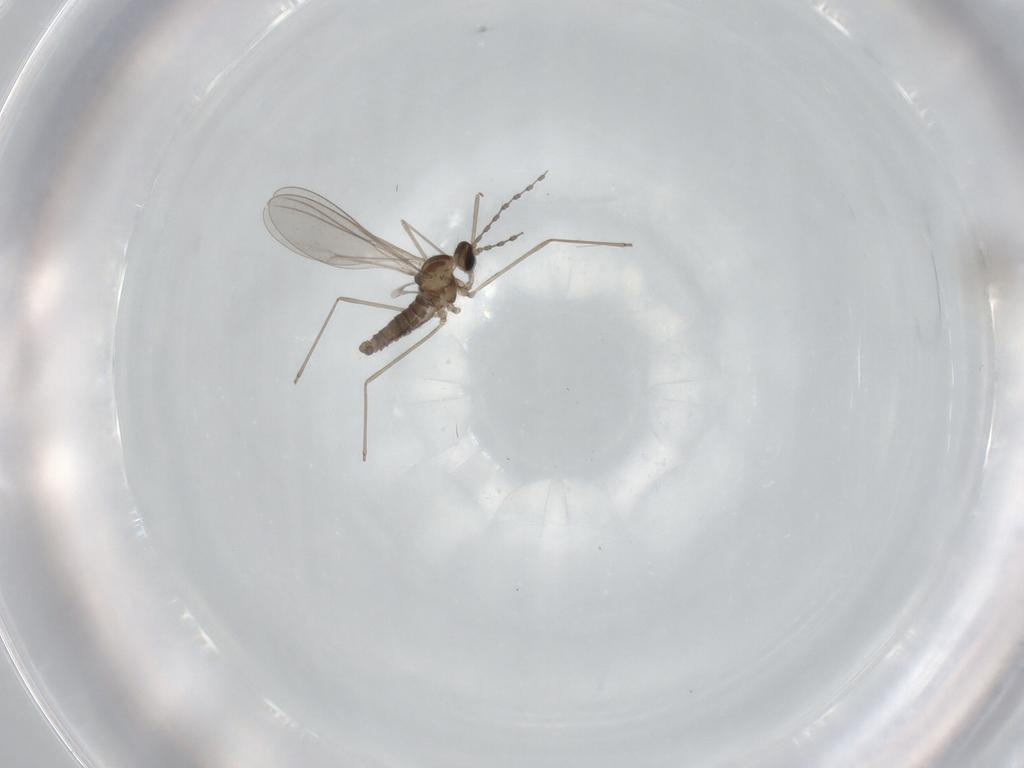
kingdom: Animalia
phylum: Arthropoda
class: Insecta
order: Diptera
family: Cecidomyiidae
